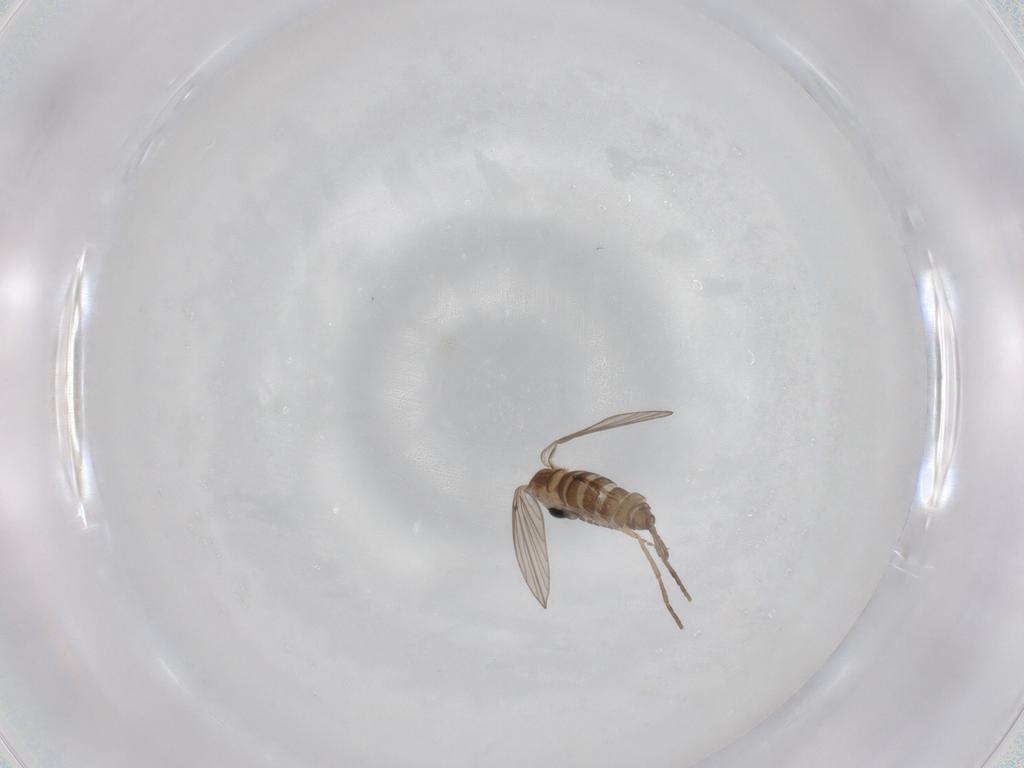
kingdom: Animalia
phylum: Arthropoda
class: Insecta
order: Diptera
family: Psychodidae
